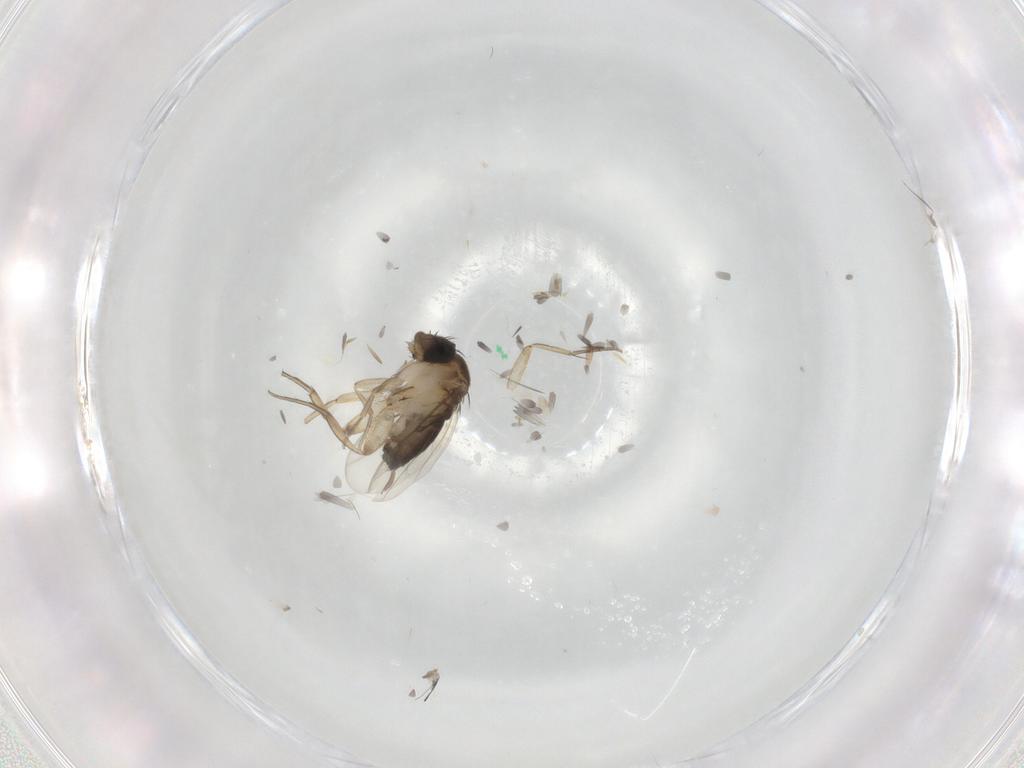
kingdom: Animalia
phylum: Arthropoda
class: Insecta
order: Diptera
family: Phoridae
